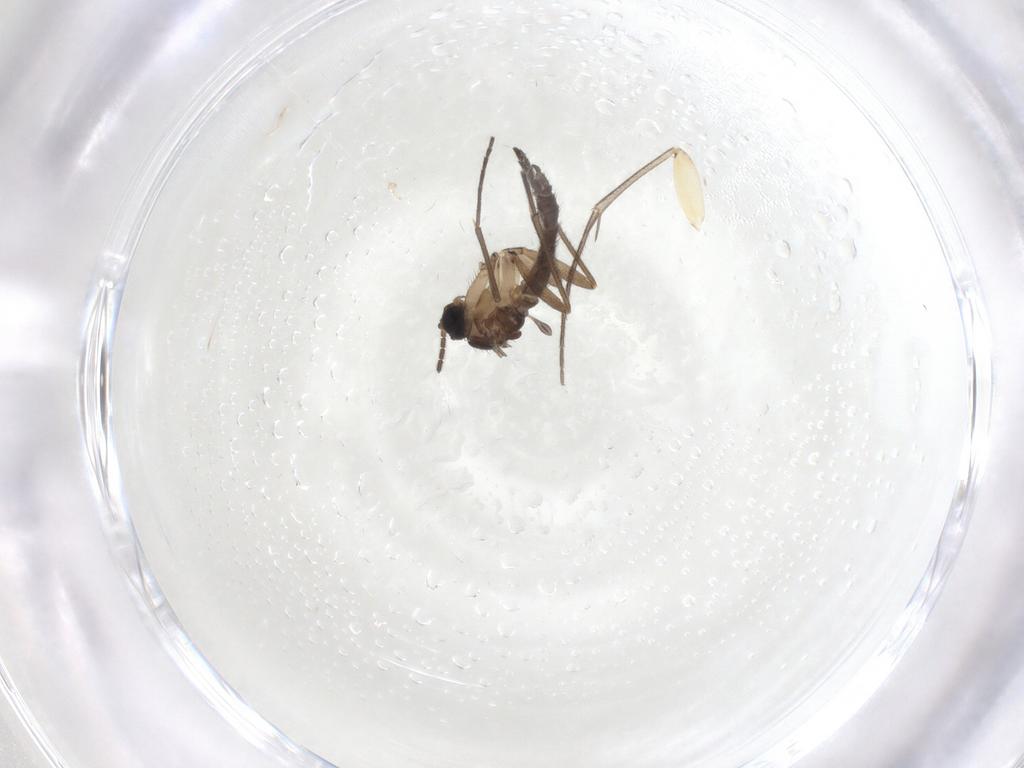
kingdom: Animalia
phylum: Arthropoda
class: Insecta
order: Diptera
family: Sciaridae
